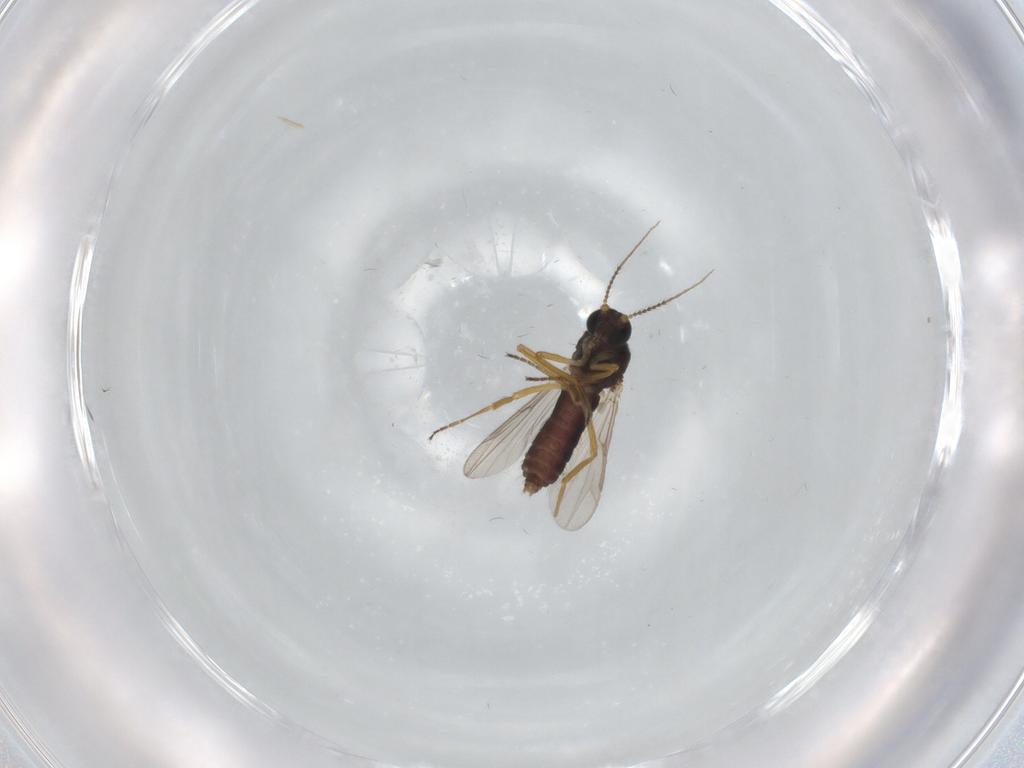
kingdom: Animalia
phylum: Arthropoda
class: Insecta
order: Diptera
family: Ceratopogonidae
